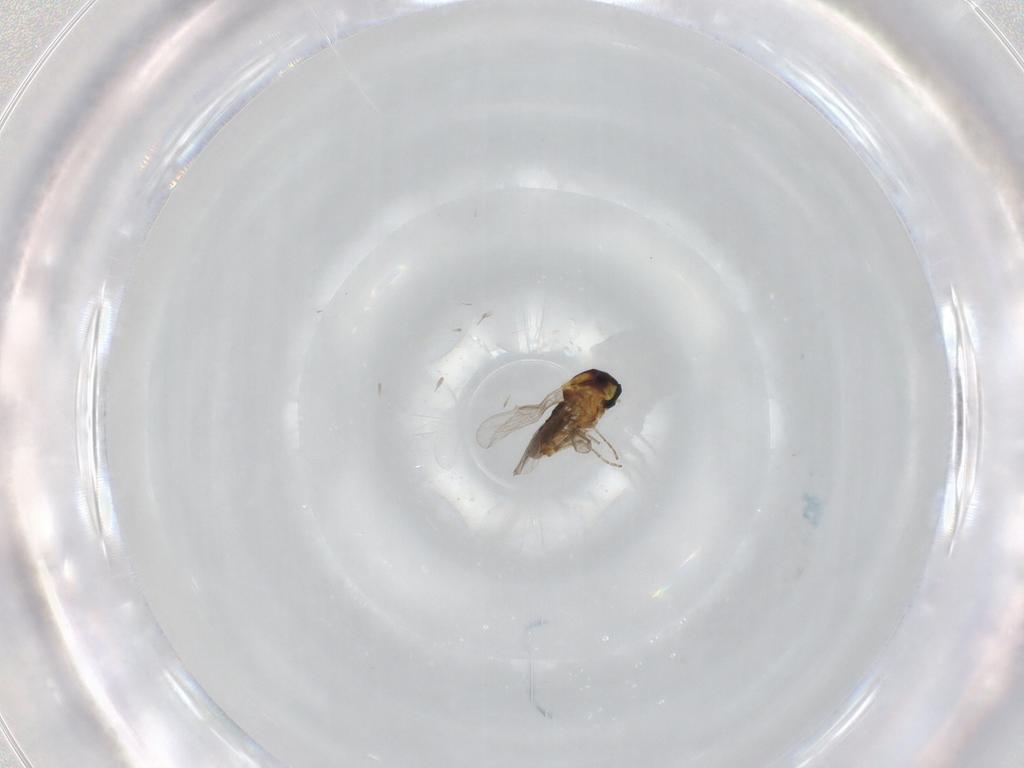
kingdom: Animalia
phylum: Arthropoda
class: Insecta
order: Diptera
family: Ceratopogonidae
